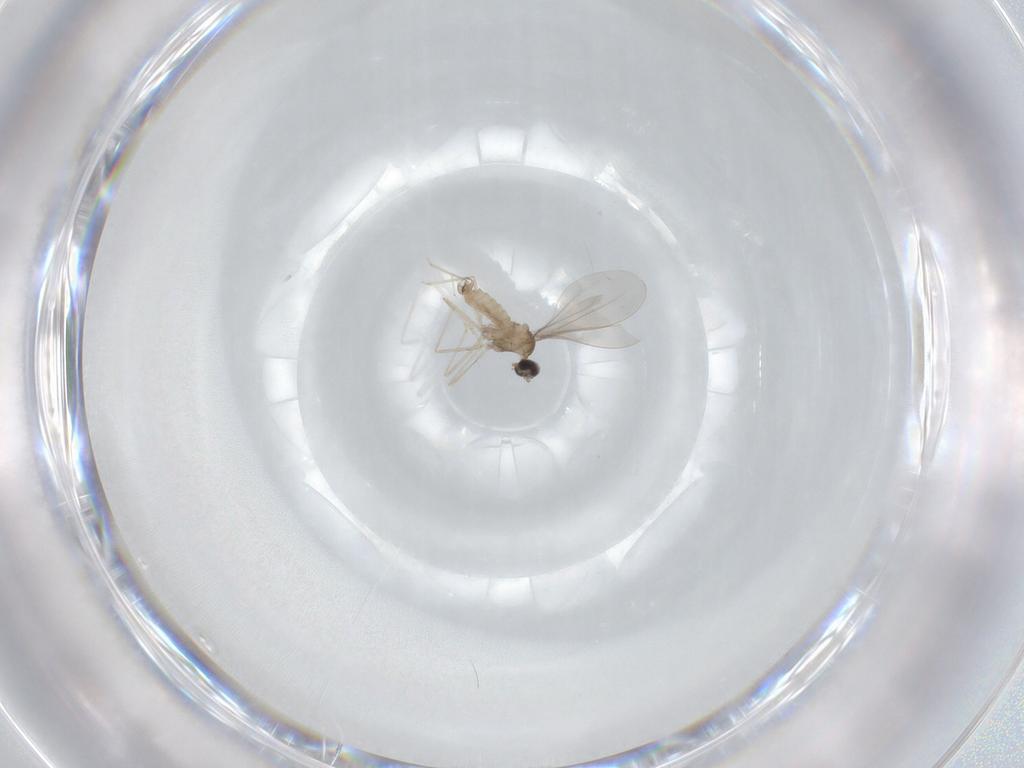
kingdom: Animalia
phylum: Arthropoda
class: Insecta
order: Diptera
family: Cecidomyiidae
